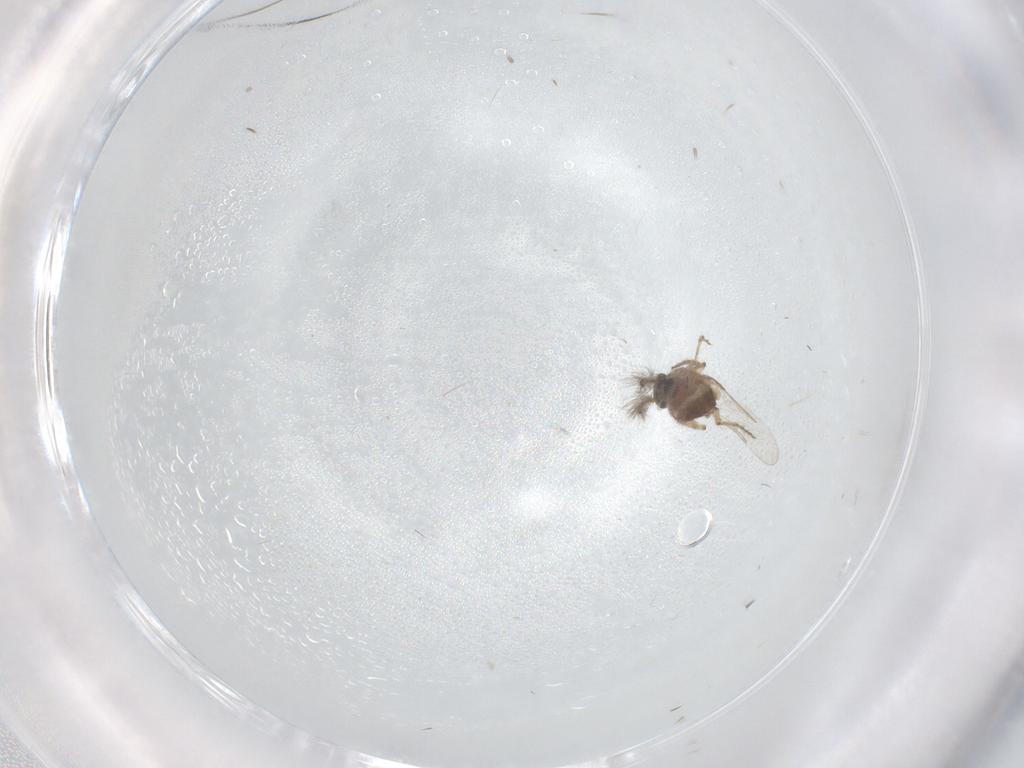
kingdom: Animalia
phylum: Arthropoda
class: Insecta
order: Diptera
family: Ceratopogonidae
